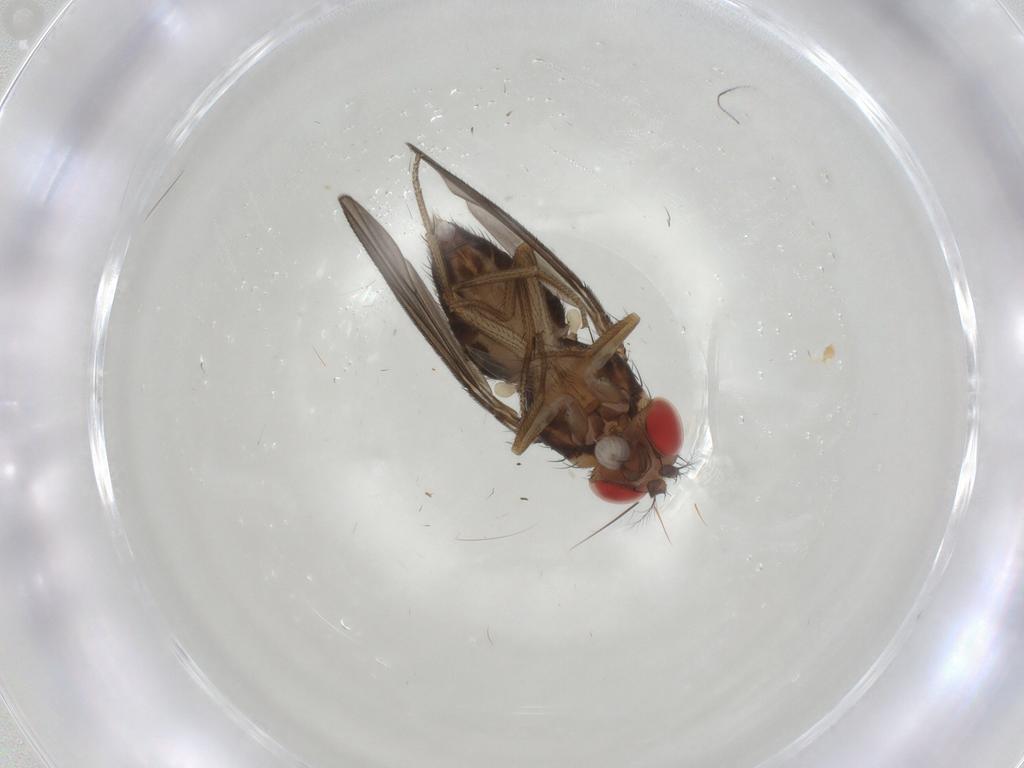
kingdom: Animalia
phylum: Arthropoda
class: Insecta
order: Diptera
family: Drosophilidae
